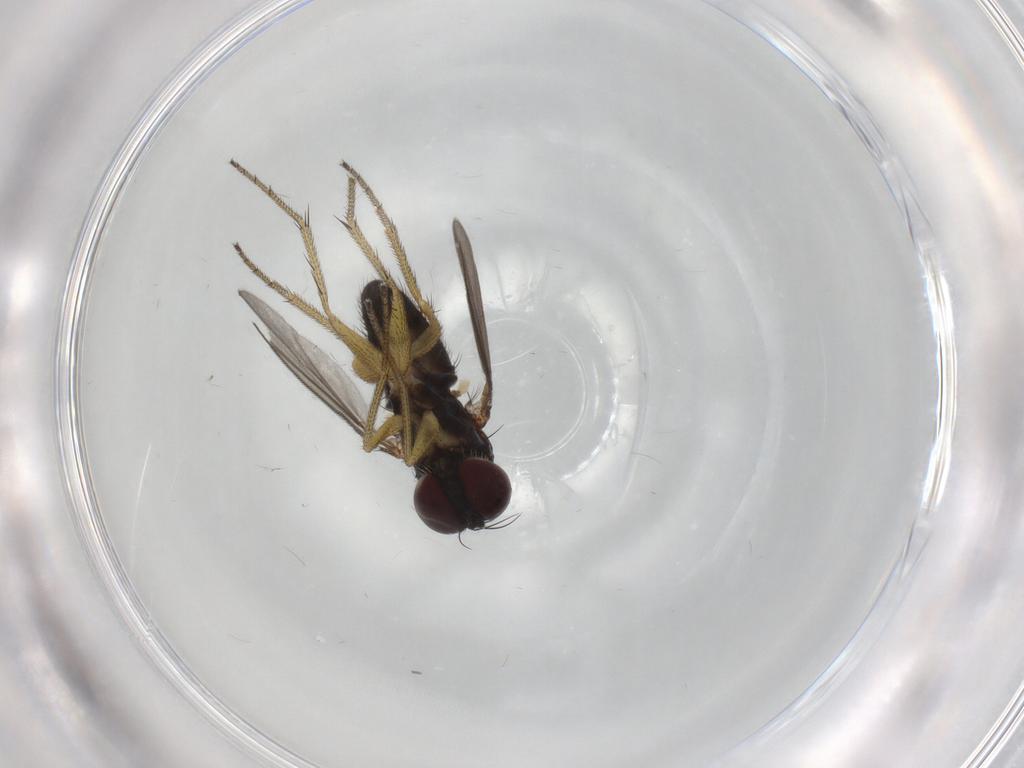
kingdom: Animalia
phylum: Arthropoda
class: Insecta
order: Diptera
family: Dolichopodidae
